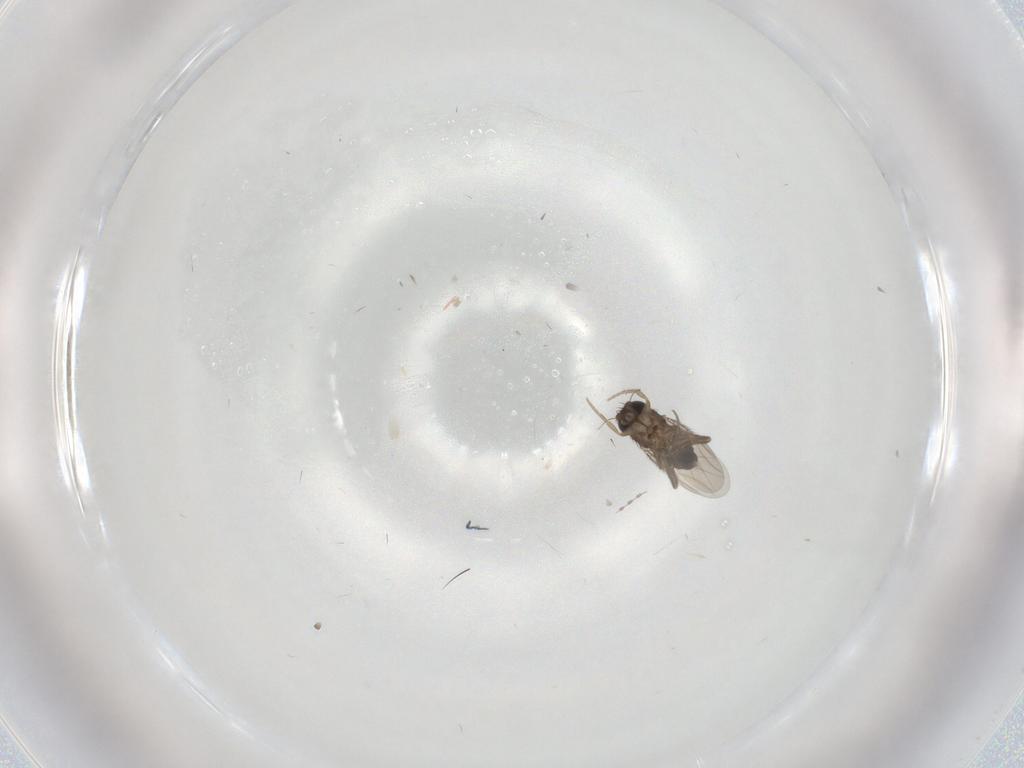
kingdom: Animalia
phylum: Arthropoda
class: Insecta
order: Diptera
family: Phoridae
